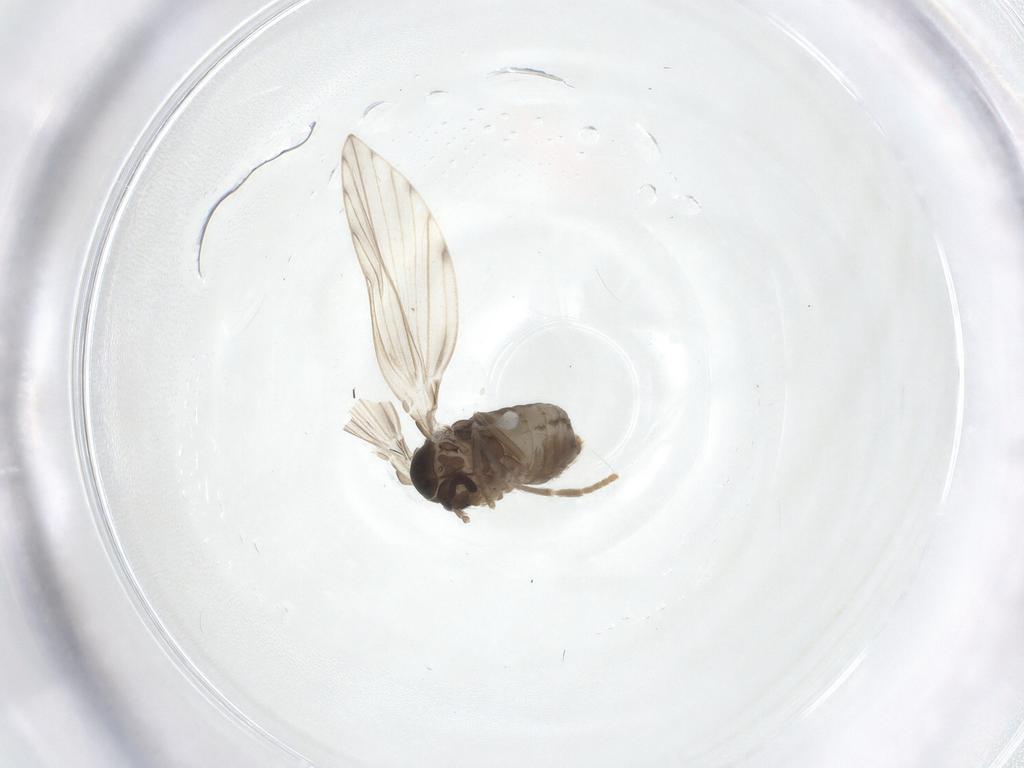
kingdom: Animalia
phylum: Arthropoda
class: Insecta
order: Diptera
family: Psychodidae
